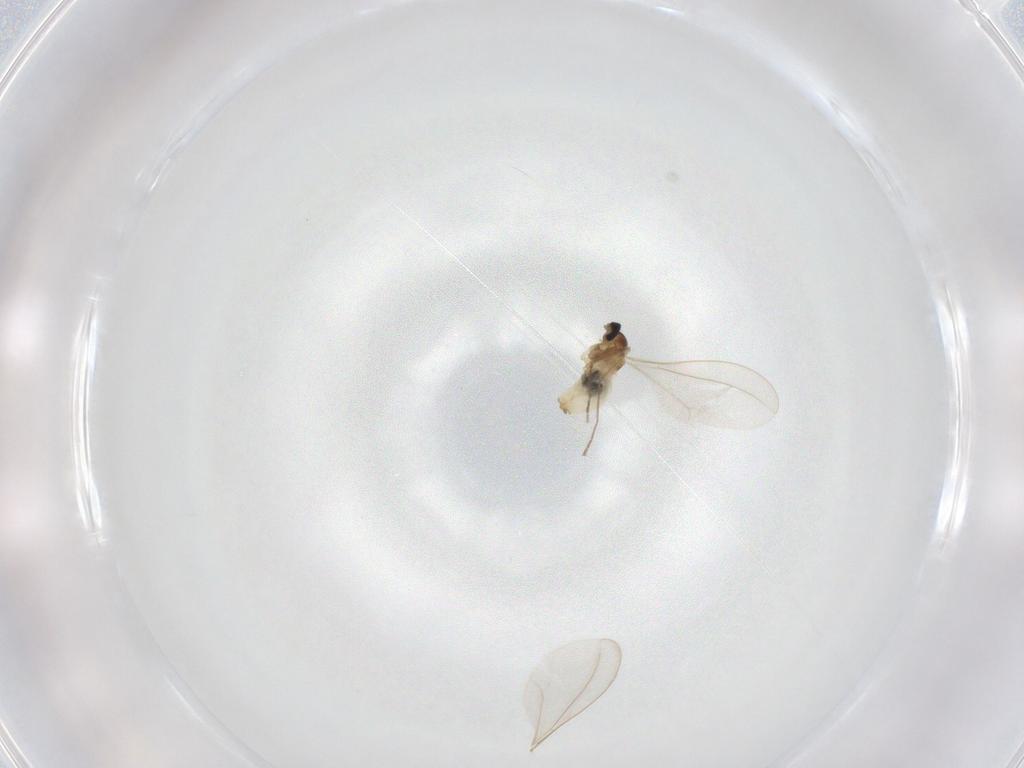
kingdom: Animalia
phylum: Arthropoda
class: Insecta
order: Diptera
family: Cecidomyiidae
